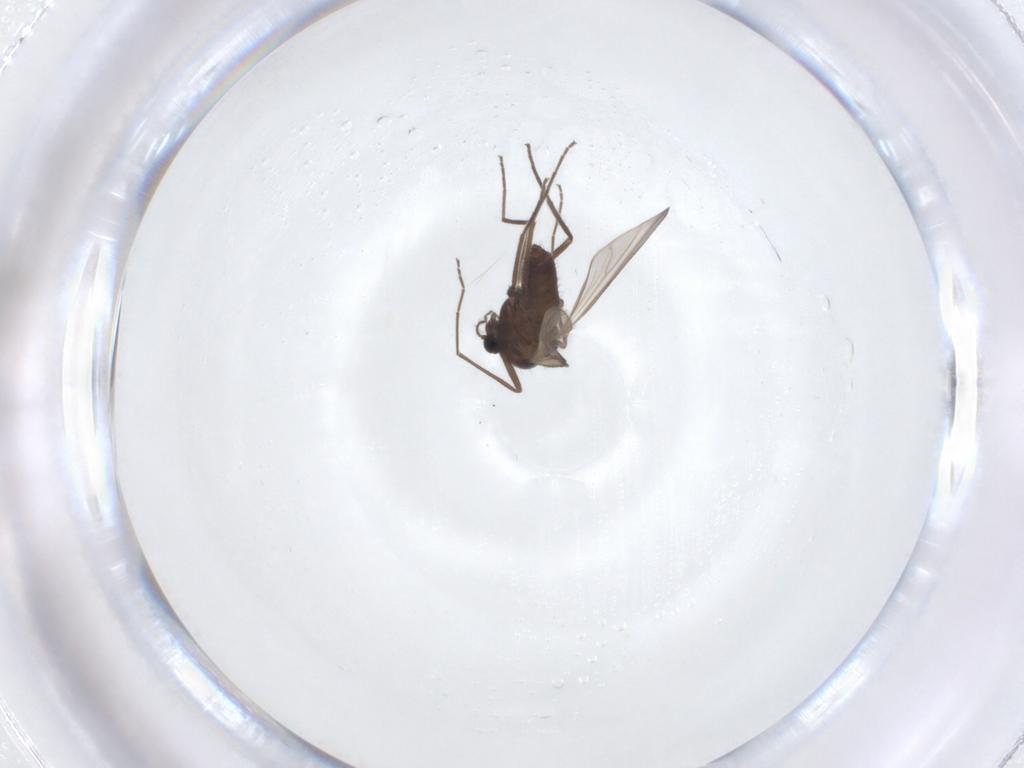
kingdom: Animalia
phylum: Arthropoda
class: Insecta
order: Diptera
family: Chironomidae
